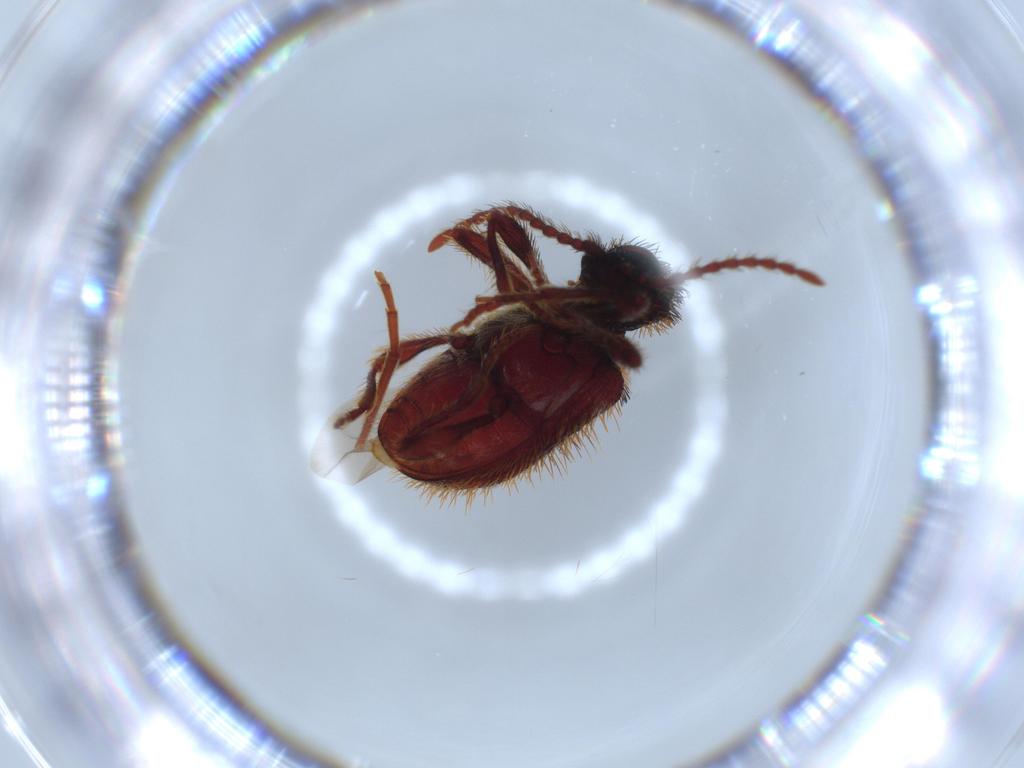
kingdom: Animalia
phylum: Arthropoda
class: Insecta
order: Coleoptera
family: Eucnemidae
